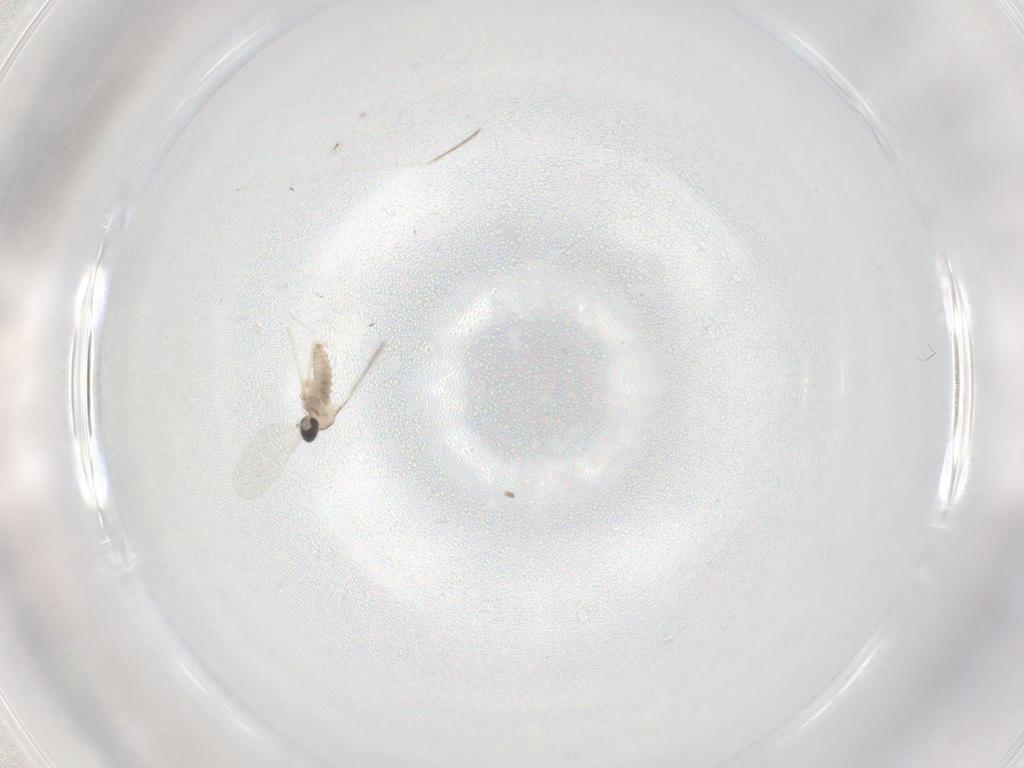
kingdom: Animalia
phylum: Arthropoda
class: Insecta
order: Diptera
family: Cecidomyiidae
